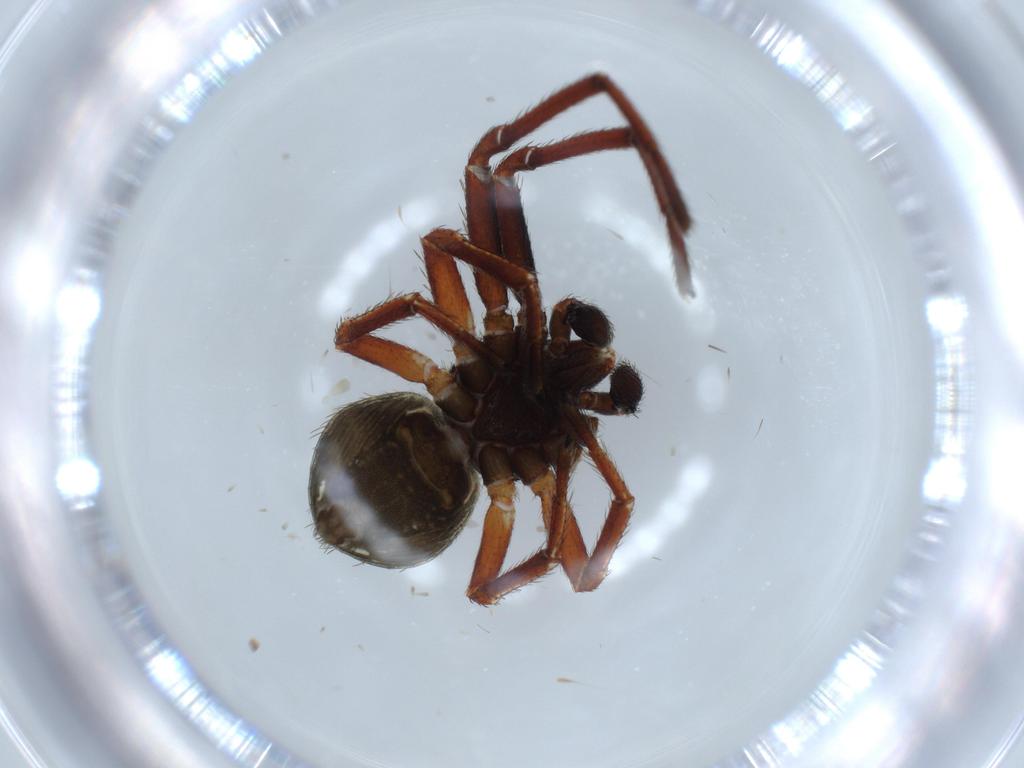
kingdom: Animalia
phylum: Arthropoda
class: Arachnida
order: Araneae
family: Thomisidae
